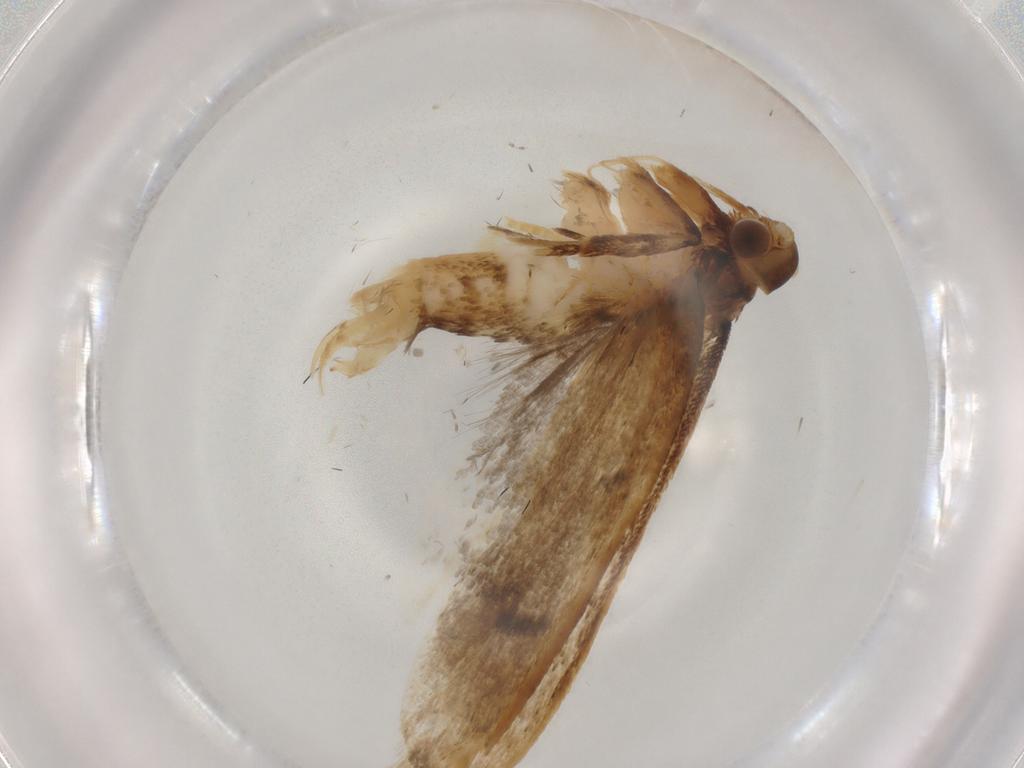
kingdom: Animalia
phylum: Arthropoda
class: Insecta
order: Lepidoptera
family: Lecithoceridae
